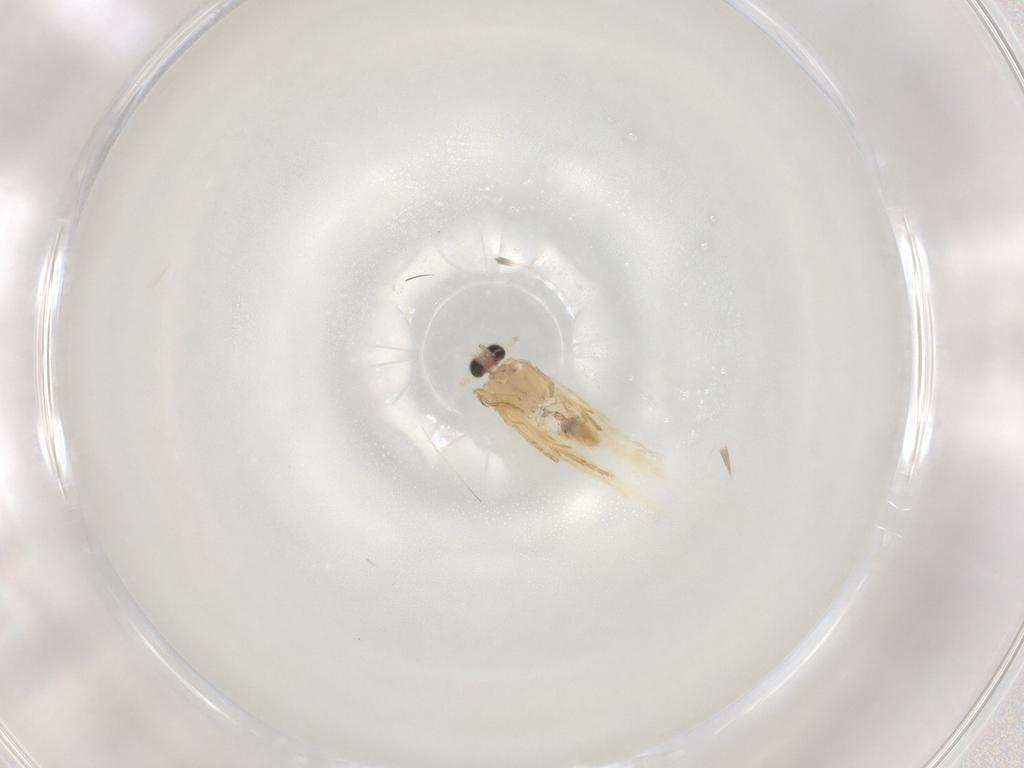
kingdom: Animalia
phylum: Arthropoda
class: Insecta
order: Lepidoptera
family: Nepticulidae
